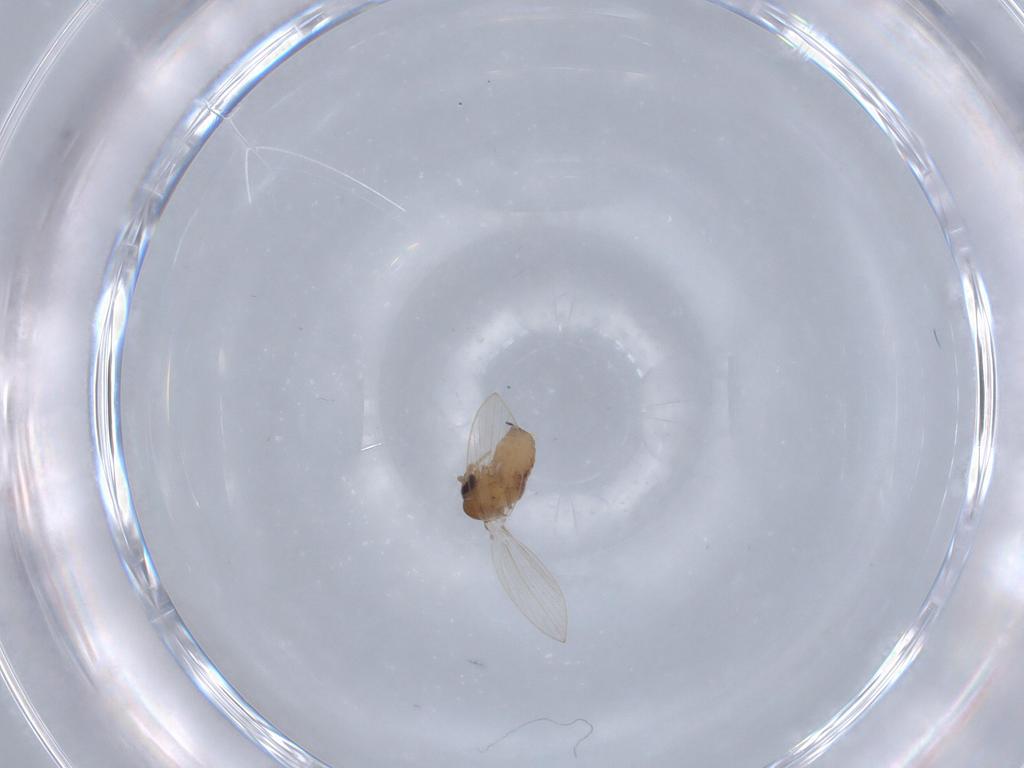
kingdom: Animalia
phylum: Arthropoda
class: Insecta
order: Diptera
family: Psychodidae
